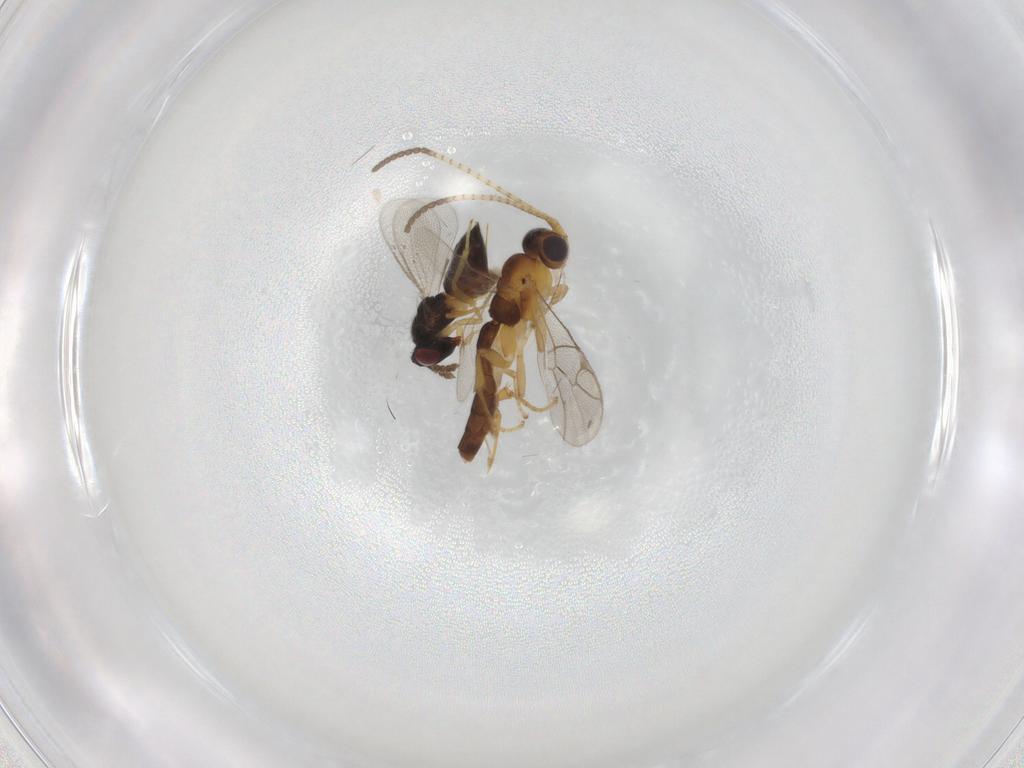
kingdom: Animalia
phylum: Arthropoda
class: Insecta
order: Hymenoptera
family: Ichneumonidae
